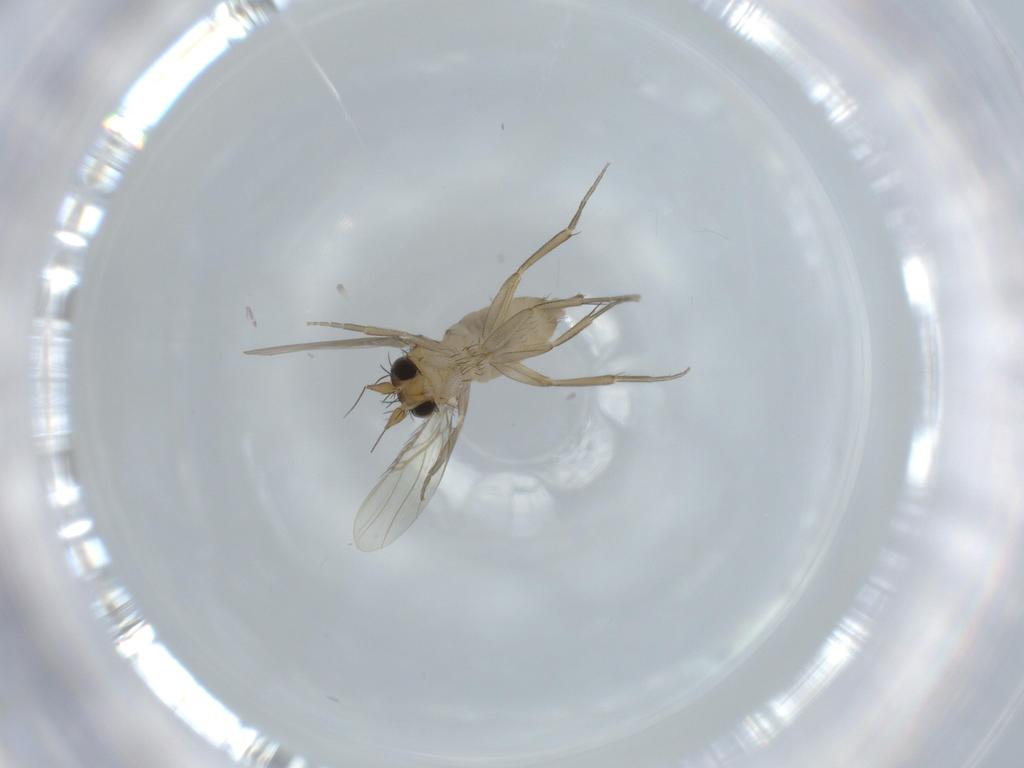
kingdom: Animalia
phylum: Arthropoda
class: Insecta
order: Diptera
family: Phoridae
